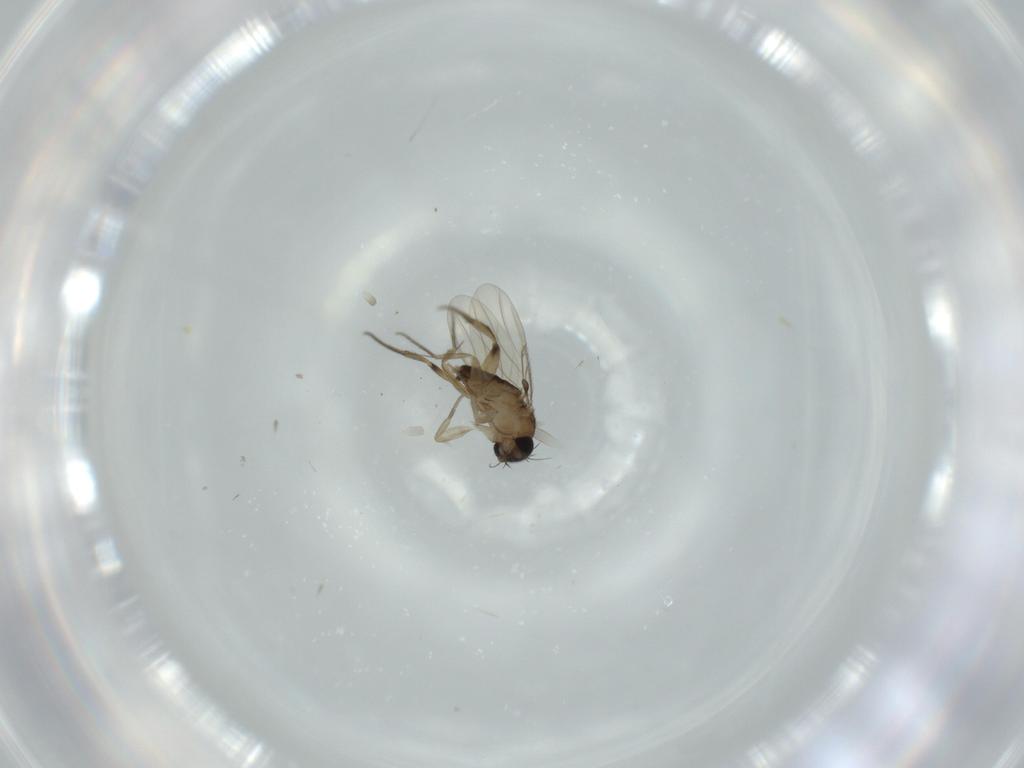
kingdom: Animalia
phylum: Arthropoda
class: Insecta
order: Diptera
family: Phoridae
